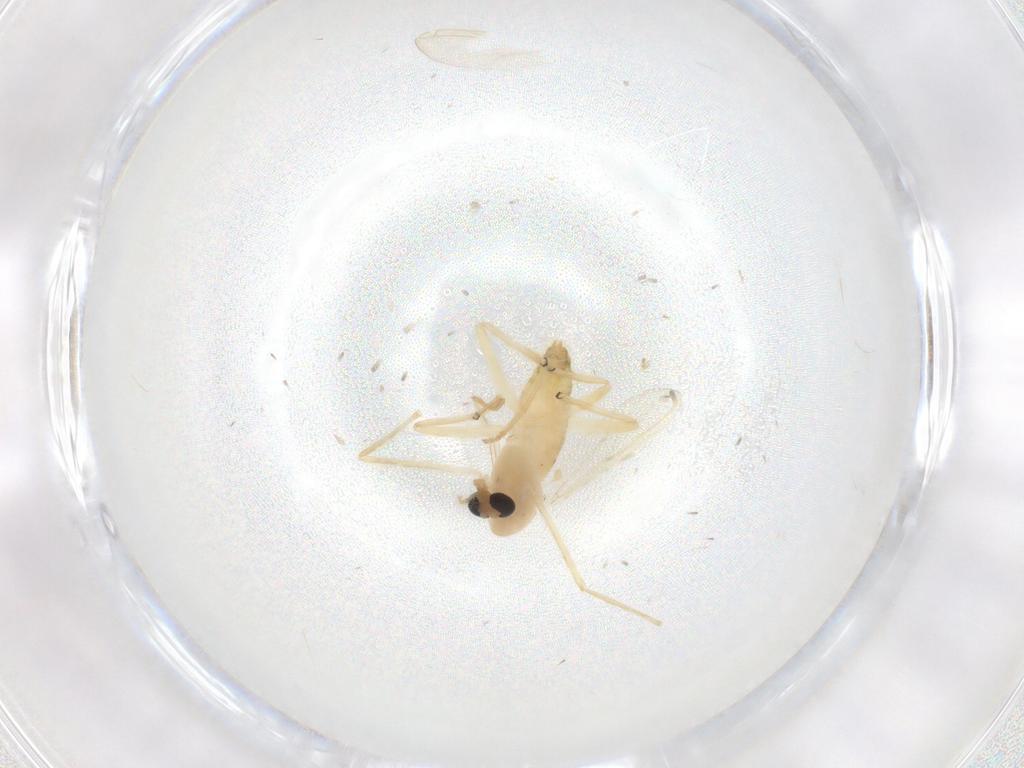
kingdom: Animalia
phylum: Arthropoda
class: Insecta
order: Diptera
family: Chironomidae
